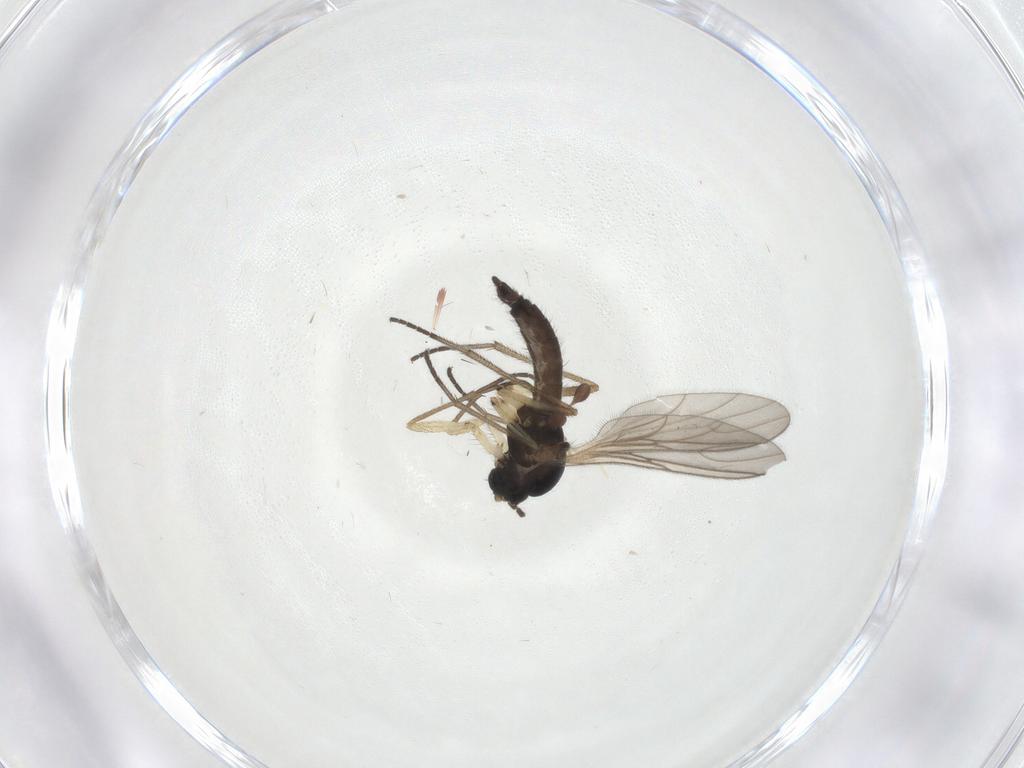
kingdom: Animalia
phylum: Arthropoda
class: Insecta
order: Diptera
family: Sciaridae
